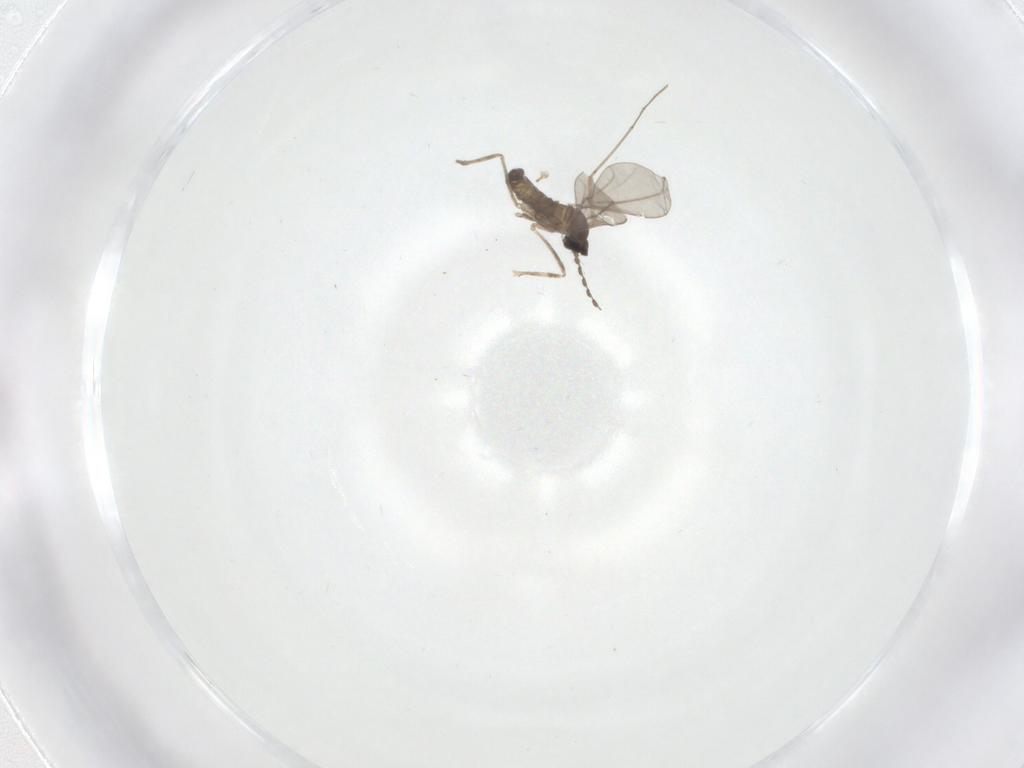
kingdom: Animalia
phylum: Arthropoda
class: Insecta
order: Diptera
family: Cecidomyiidae
